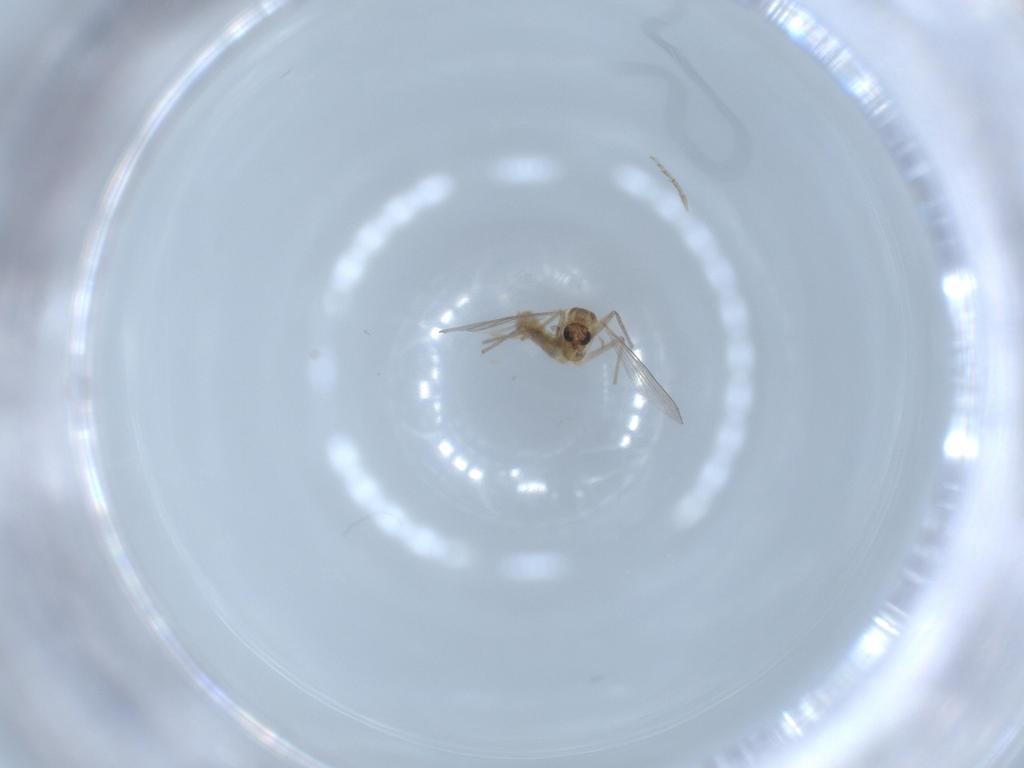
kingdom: Animalia
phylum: Arthropoda
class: Insecta
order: Diptera
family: Chironomidae
